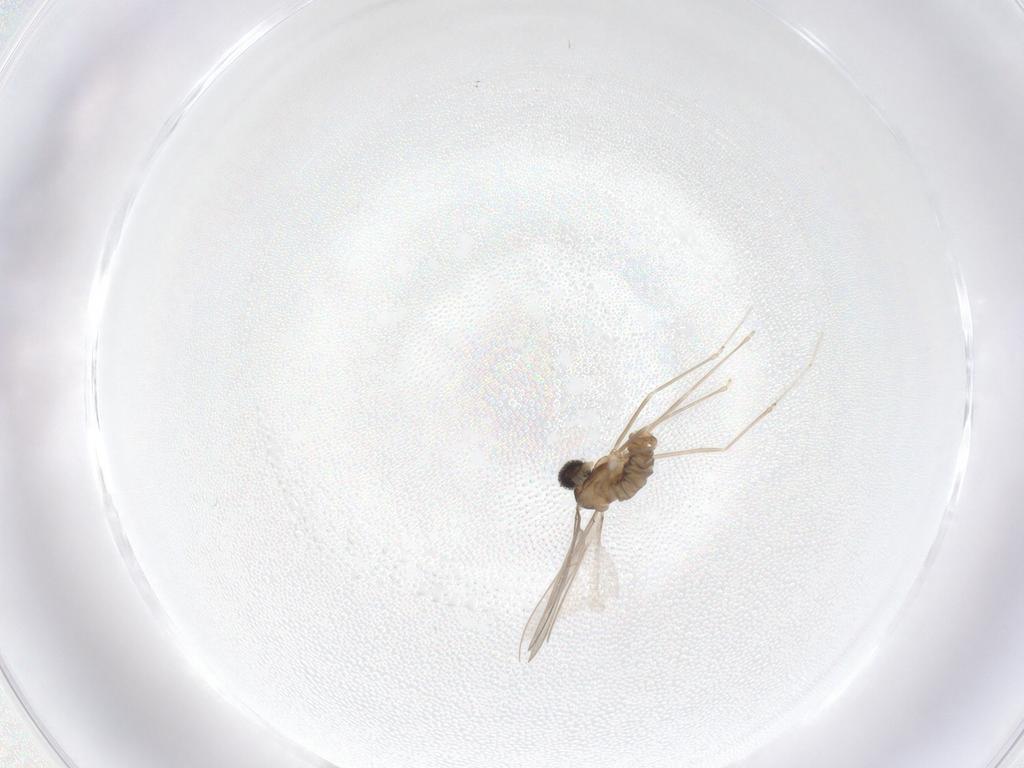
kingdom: Animalia
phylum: Arthropoda
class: Insecta
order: Diptera
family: Cecidomyiidae
